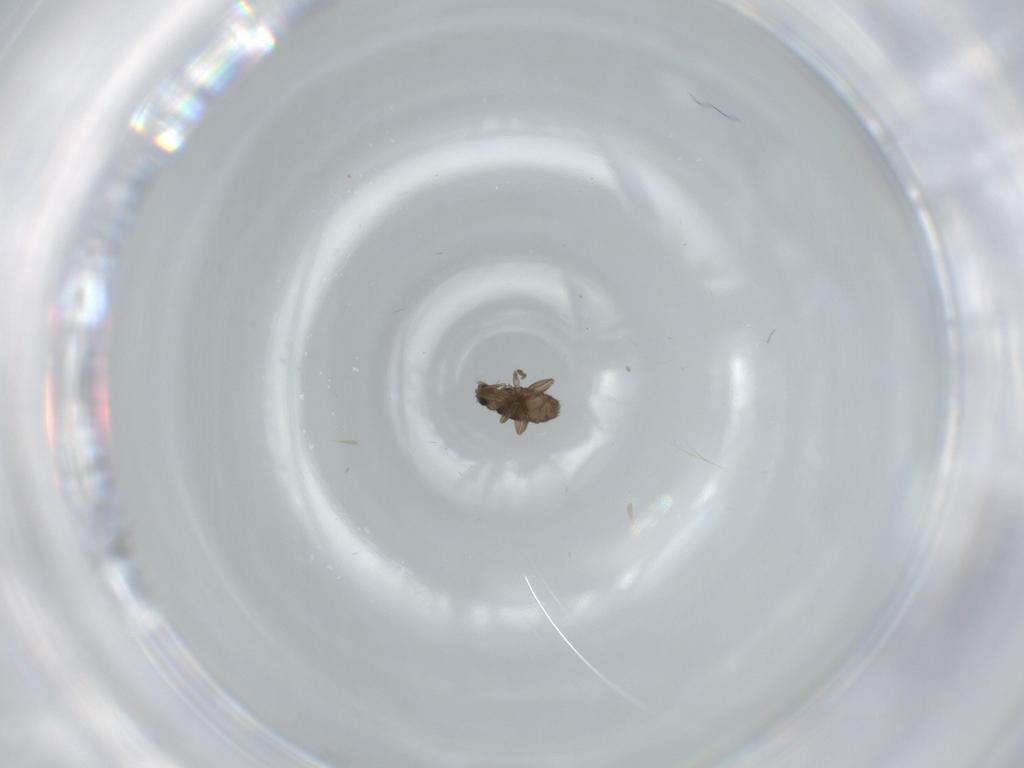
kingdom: Animalia
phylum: Arthropoda
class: Insecta
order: Diptera
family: Phoridae
